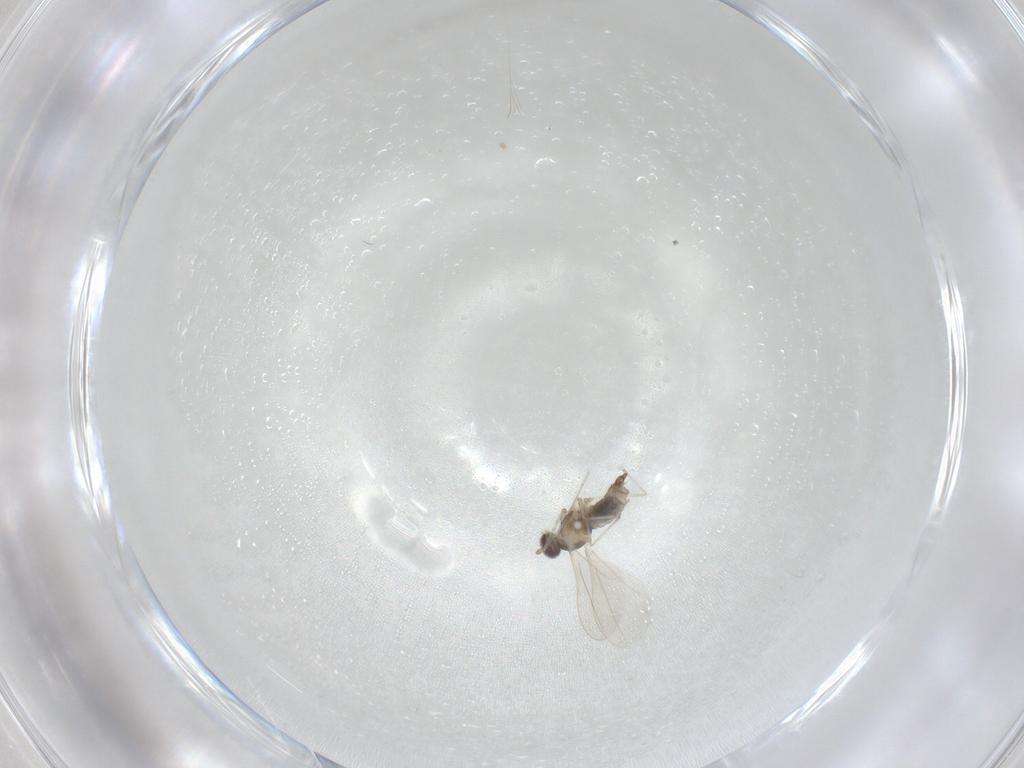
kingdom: Animalia
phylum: Arthropoda
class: Insecta
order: Diptera
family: Cecidomyiidae
